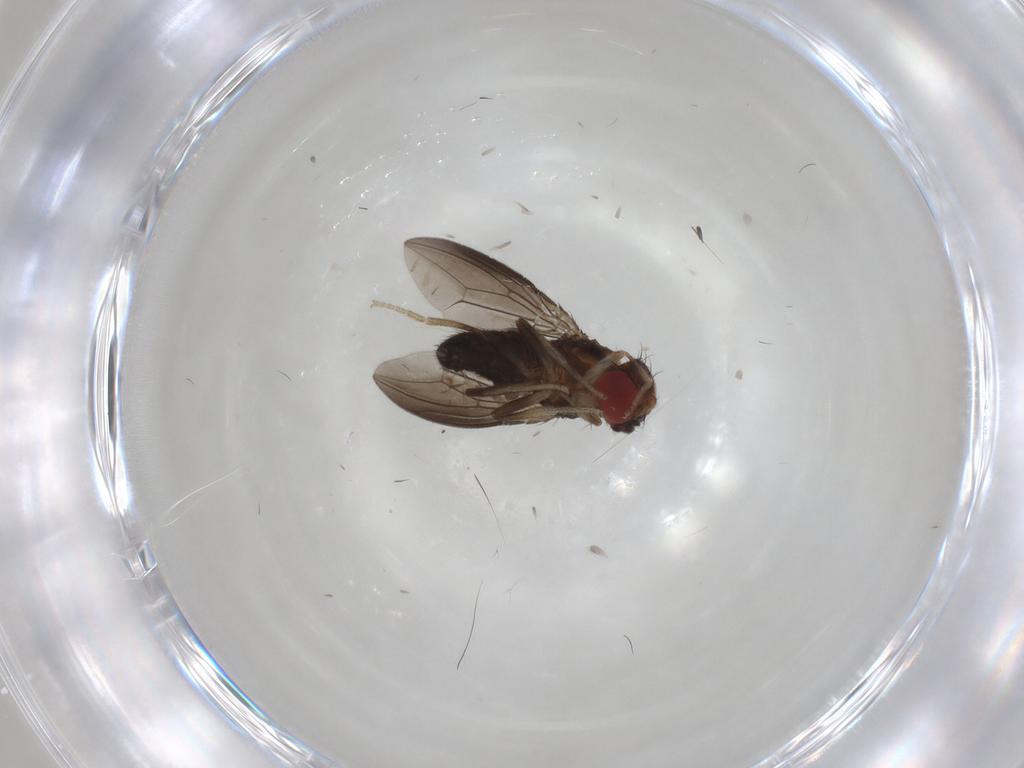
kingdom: Animalia
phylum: Arthropoda
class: Insecta
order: Diptera
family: Drosophilidae
